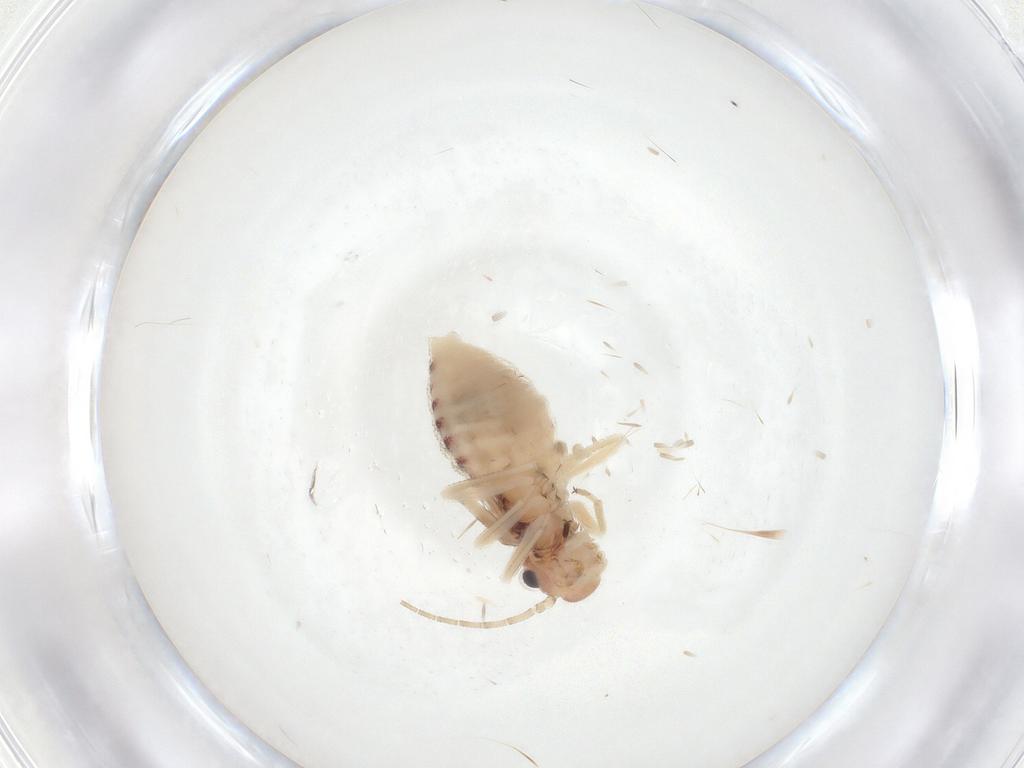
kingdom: Animalia
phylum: Arthropoda
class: Insecta
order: Psocodea
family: Amphipsocidae
